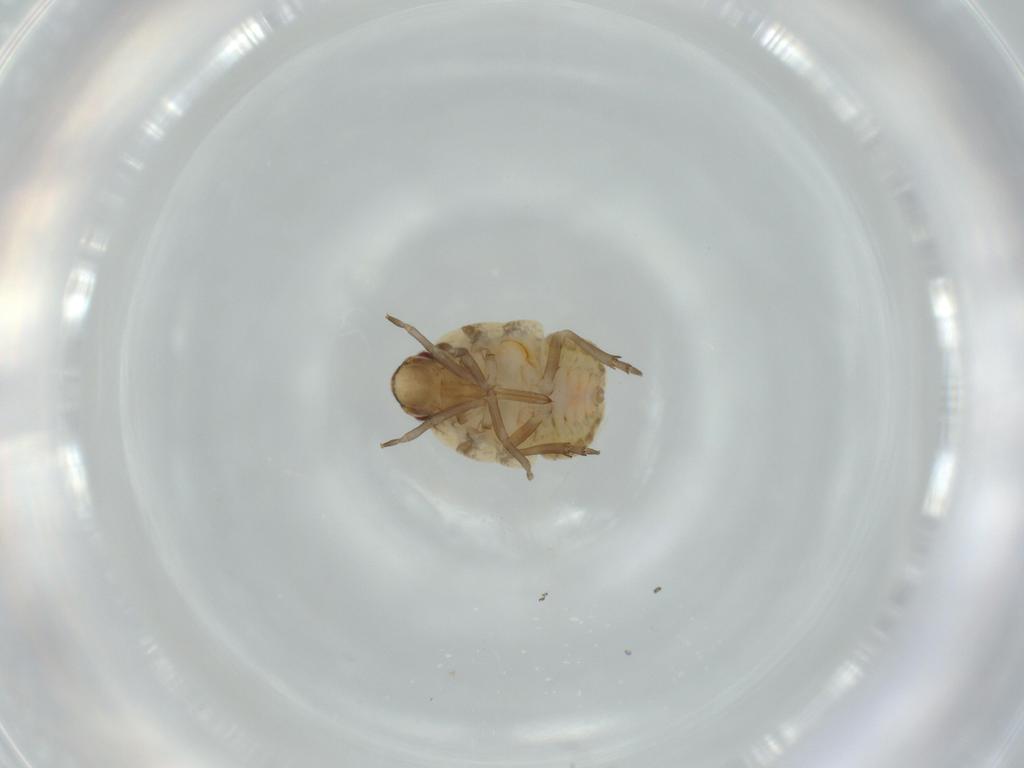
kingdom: Animalia
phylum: Arthropoda
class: Insecta
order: Hemiptera
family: Flatidae
